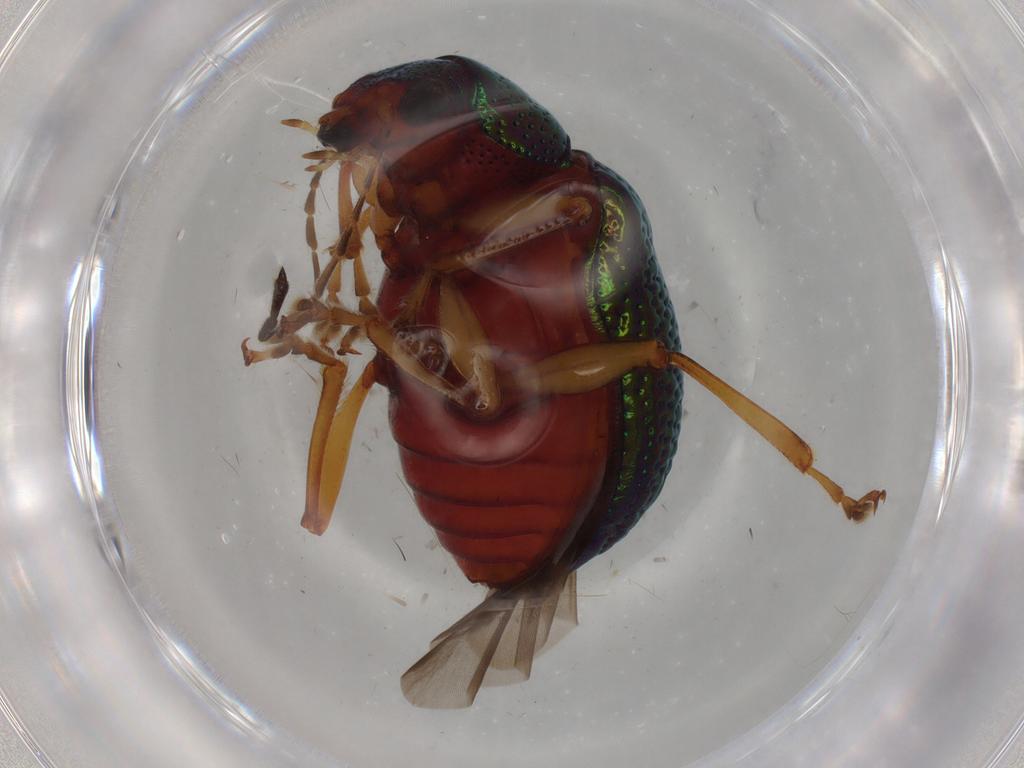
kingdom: Animalia
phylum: Arthropoda
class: Insecta
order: Coleoptera
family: Chrysomelidae
